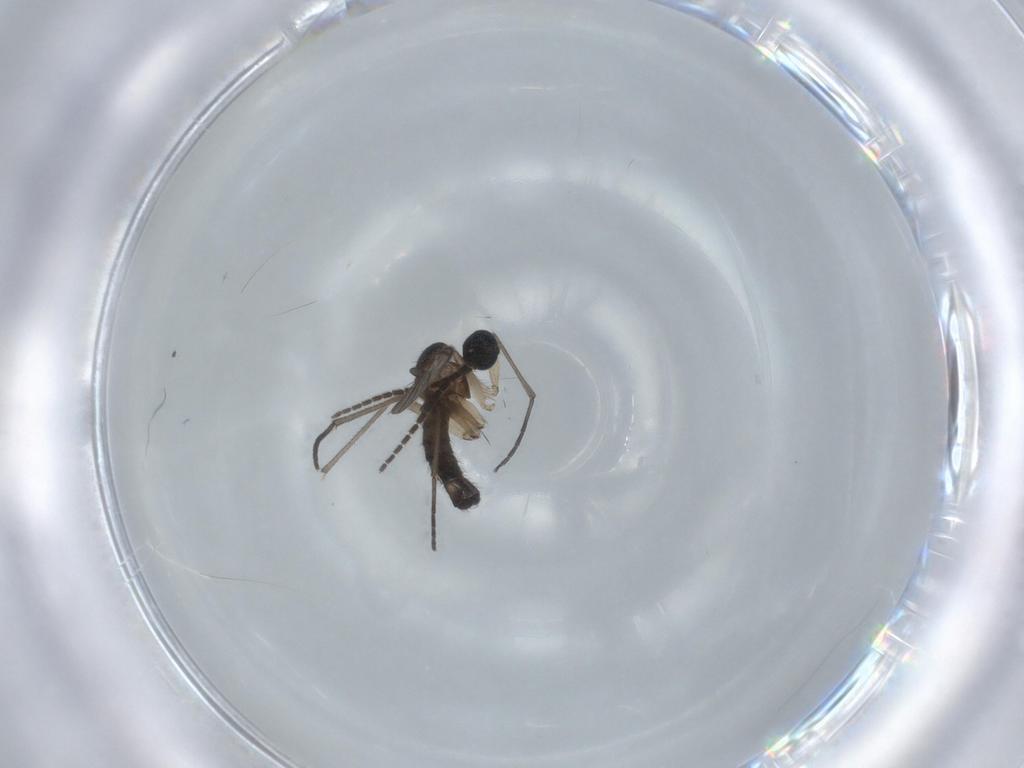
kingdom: Animalia
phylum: Arthropoda
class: Insecta
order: Diptera
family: Sciaridae
